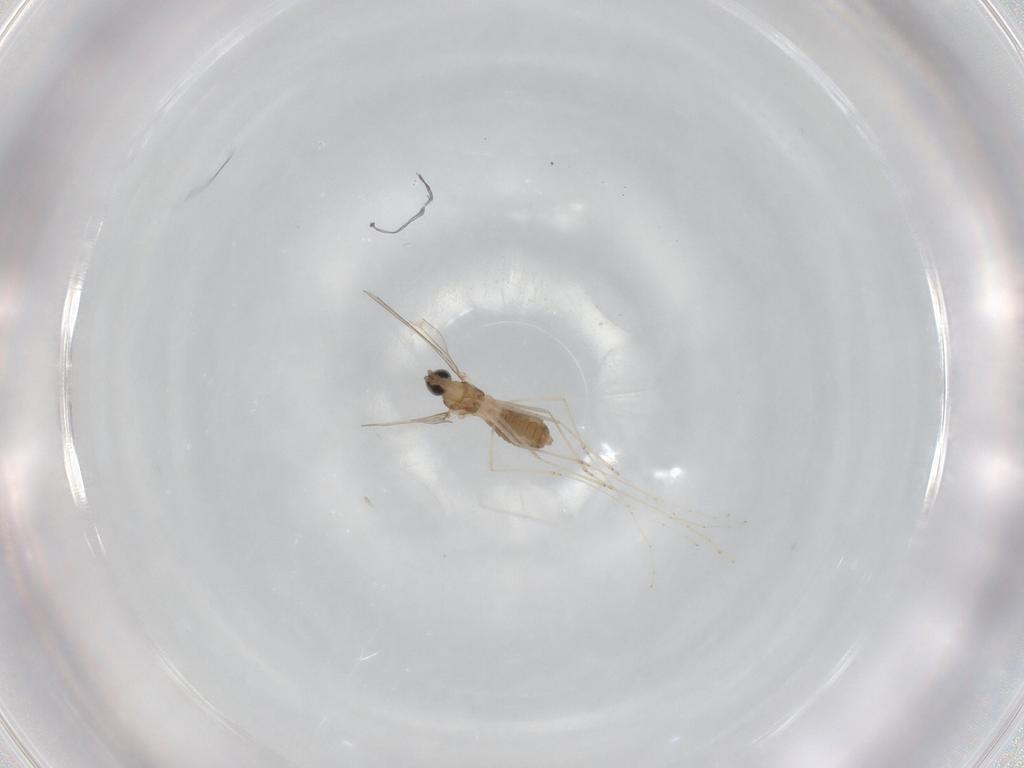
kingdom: Animalia
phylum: Arthropoda
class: Insecta
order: Diptera
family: Cecidomyiidae
